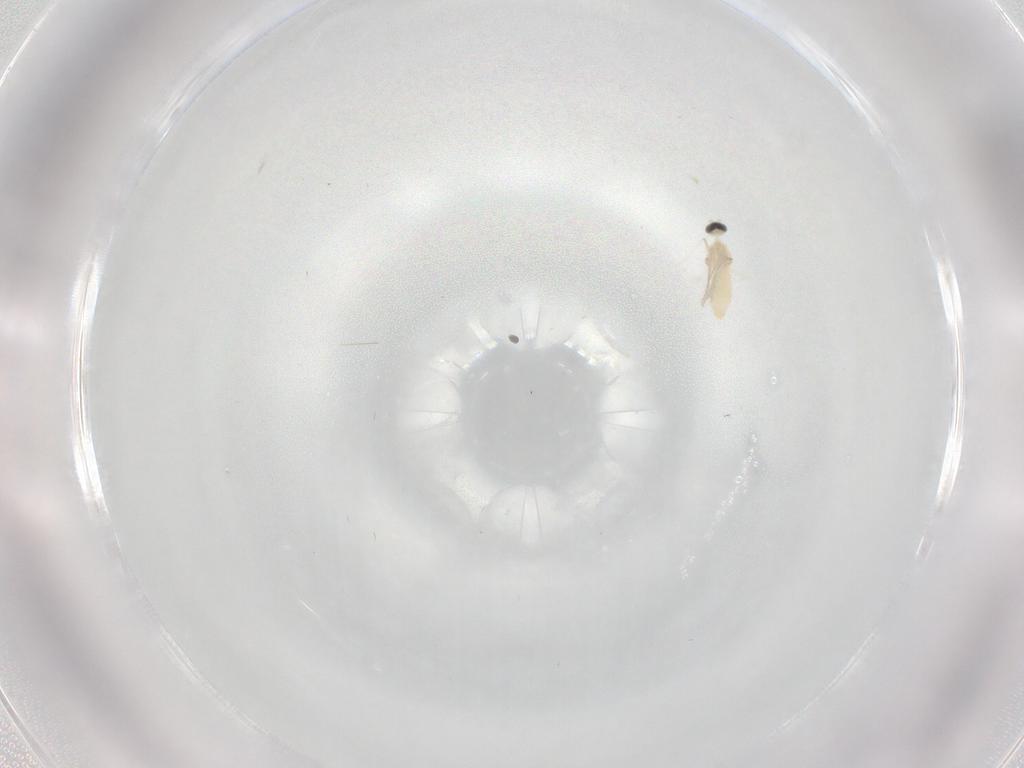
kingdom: Animalia
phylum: Arthropoda
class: Insecta
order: Diptera
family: Cecidomyiidae
